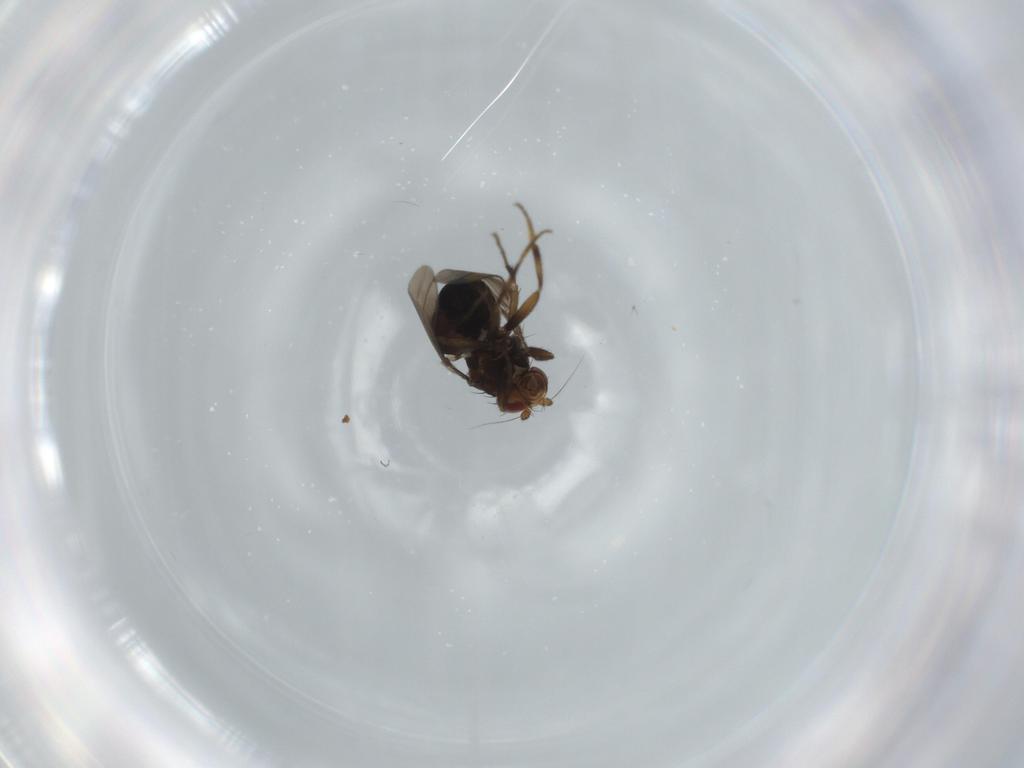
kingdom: Animalia
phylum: Arthropoda
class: Insecta
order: Diptera
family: Sphaeroceridae
